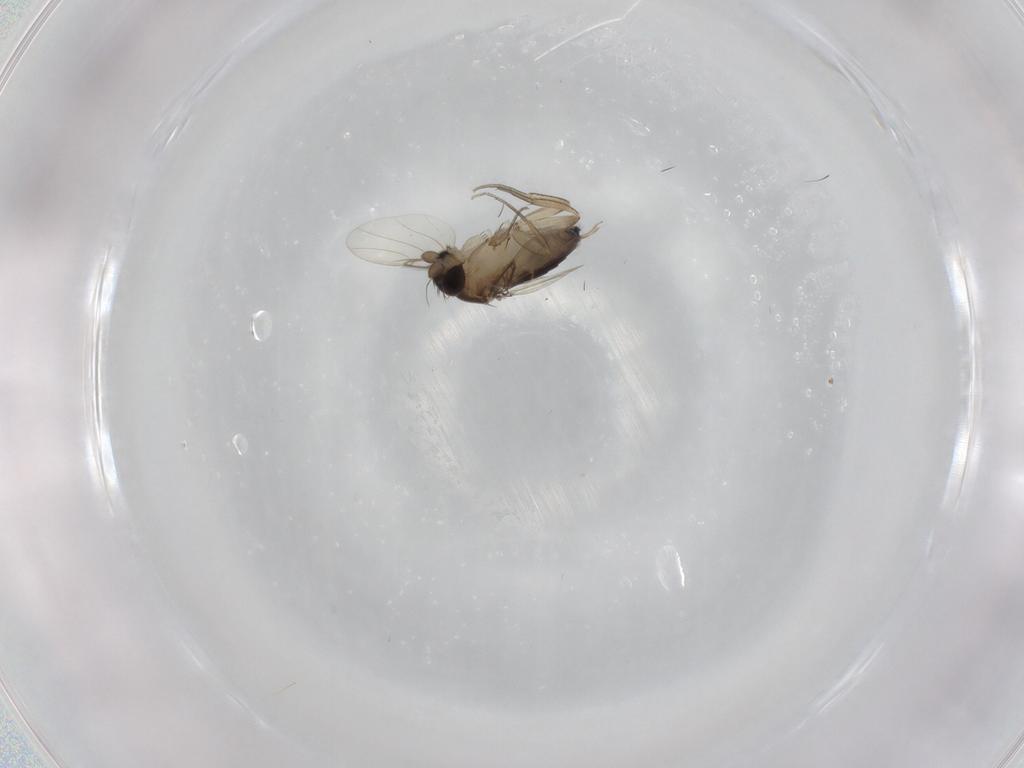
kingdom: Animalia
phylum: Arthropoda
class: Insecta
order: Diptera
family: Phoridae
